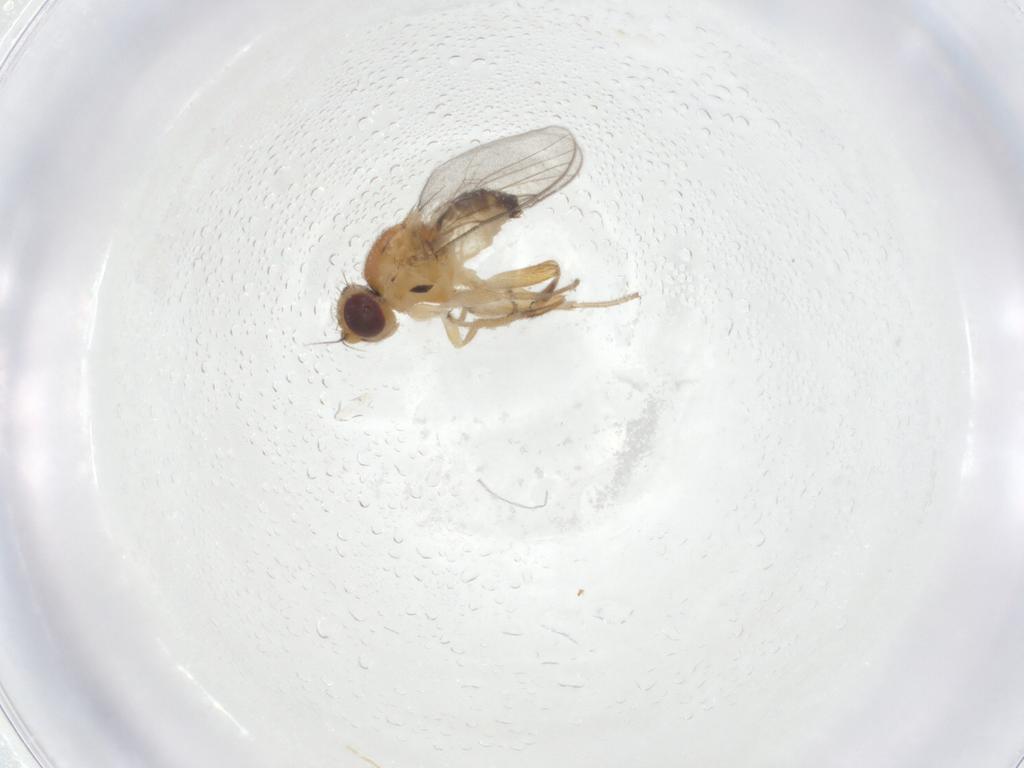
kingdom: Animalia
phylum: Arthropoda
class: Insecta
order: Diptera
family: Chloropidae
